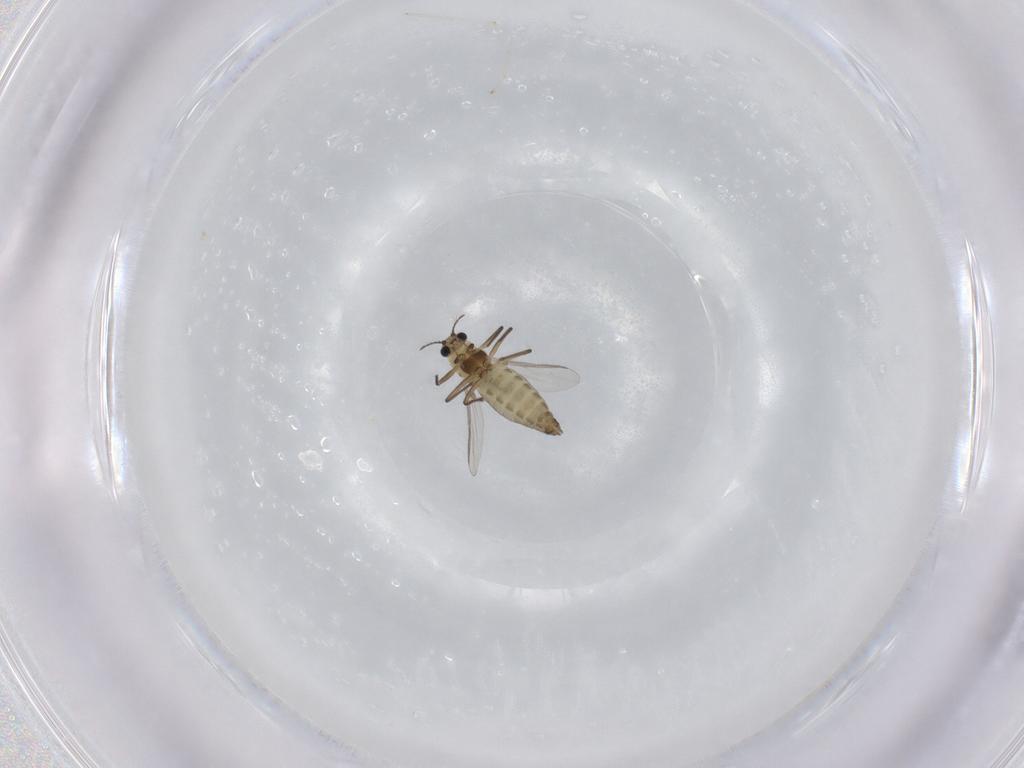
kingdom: Animalia
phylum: Arthropoda
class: Insecta
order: Diptera
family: Chironomidae
